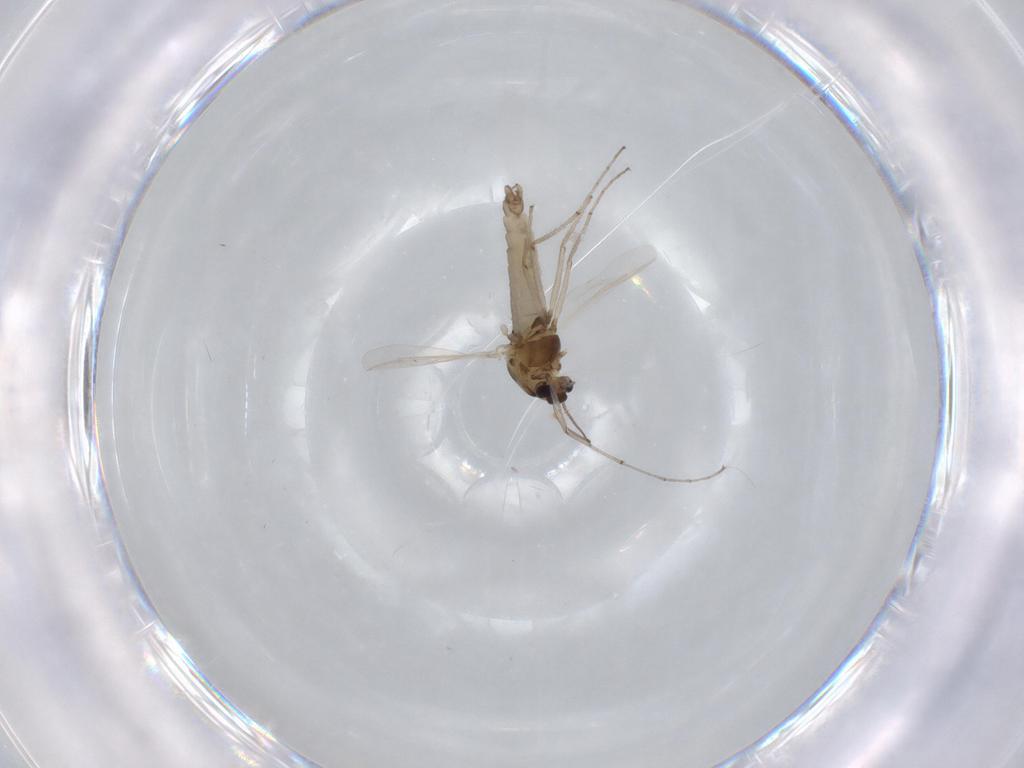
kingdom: Animalia
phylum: Arthropoda
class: Insecta
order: Diptera
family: Chironomidae
